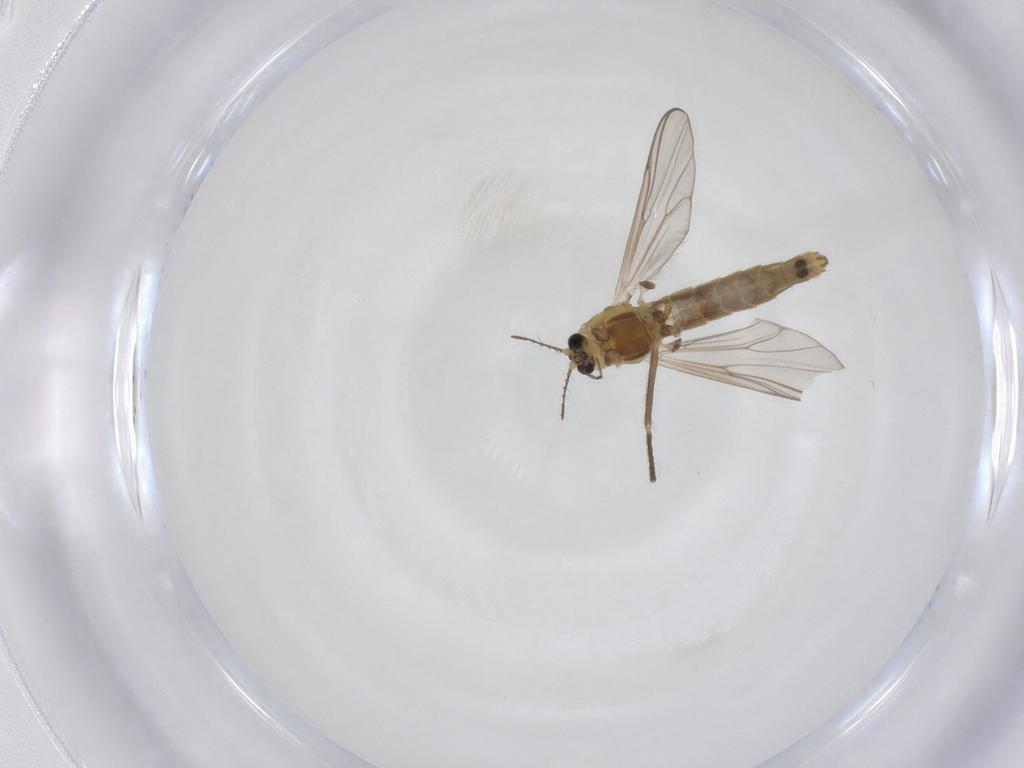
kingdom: Animalia
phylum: Arthropoda
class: Insecta
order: Diptera
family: Chironomidae
